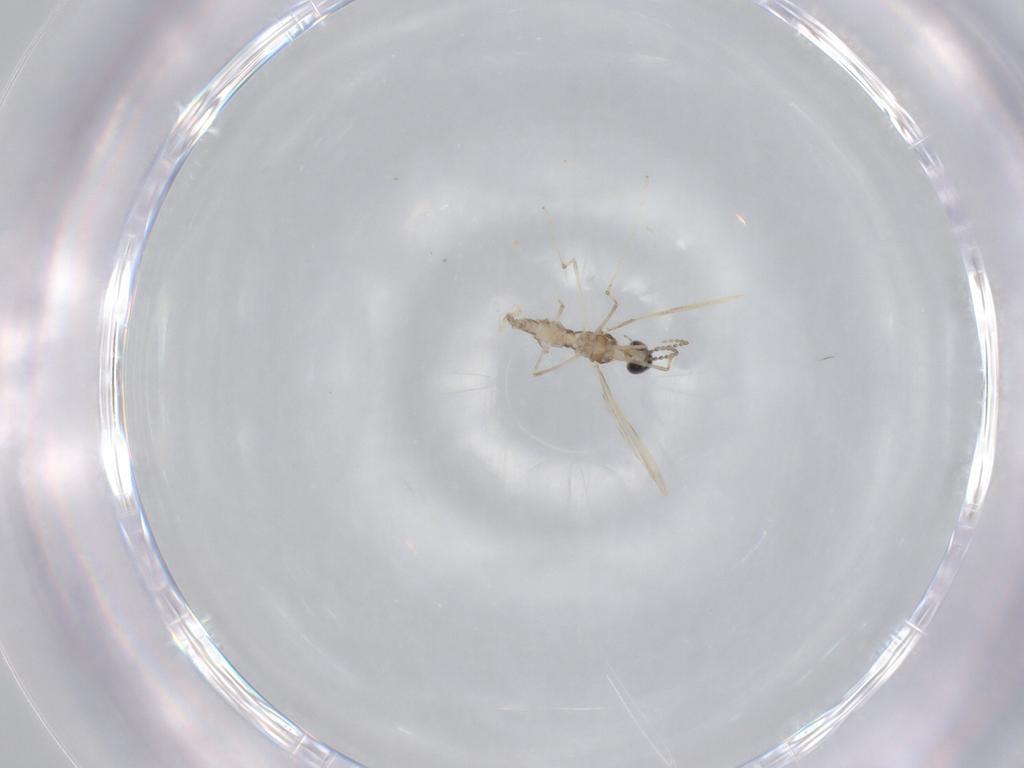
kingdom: Animalia
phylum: Arthropoda
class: Insecta
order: Diptera
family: Cecidomyiidae
